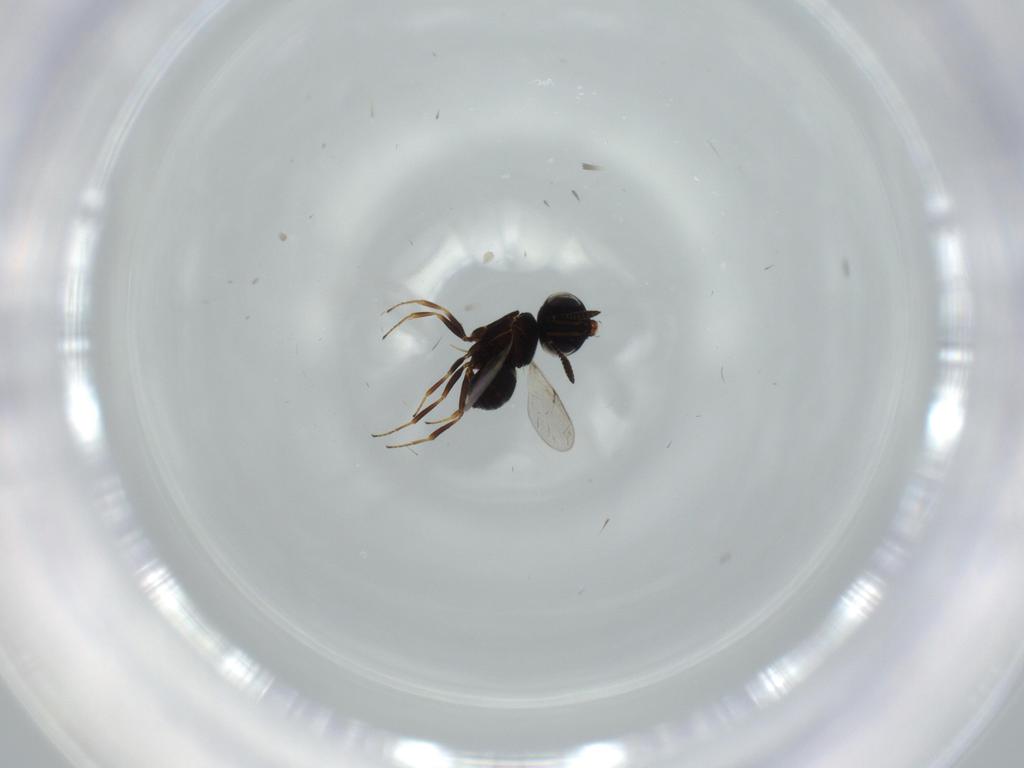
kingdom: Animalia
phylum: Arthropoda
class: Insecta
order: Hymenoptera
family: Scelionidae
